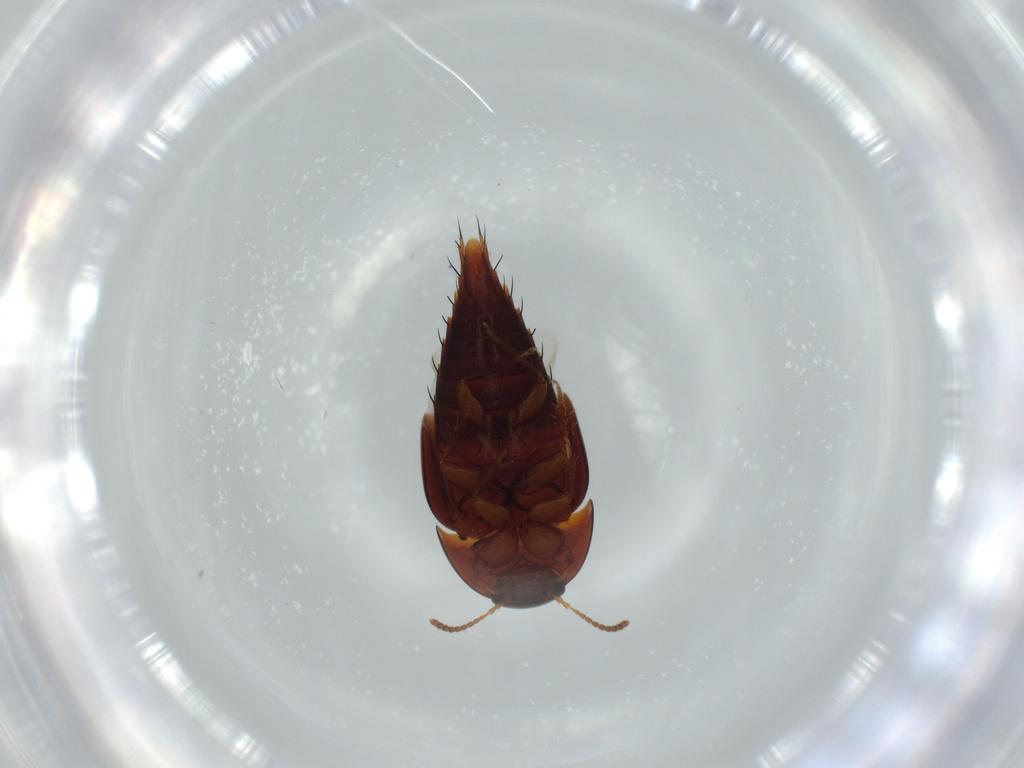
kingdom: Animalia
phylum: Arthropoda
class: Insecta
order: Coleoptera
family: Staphylinidae
